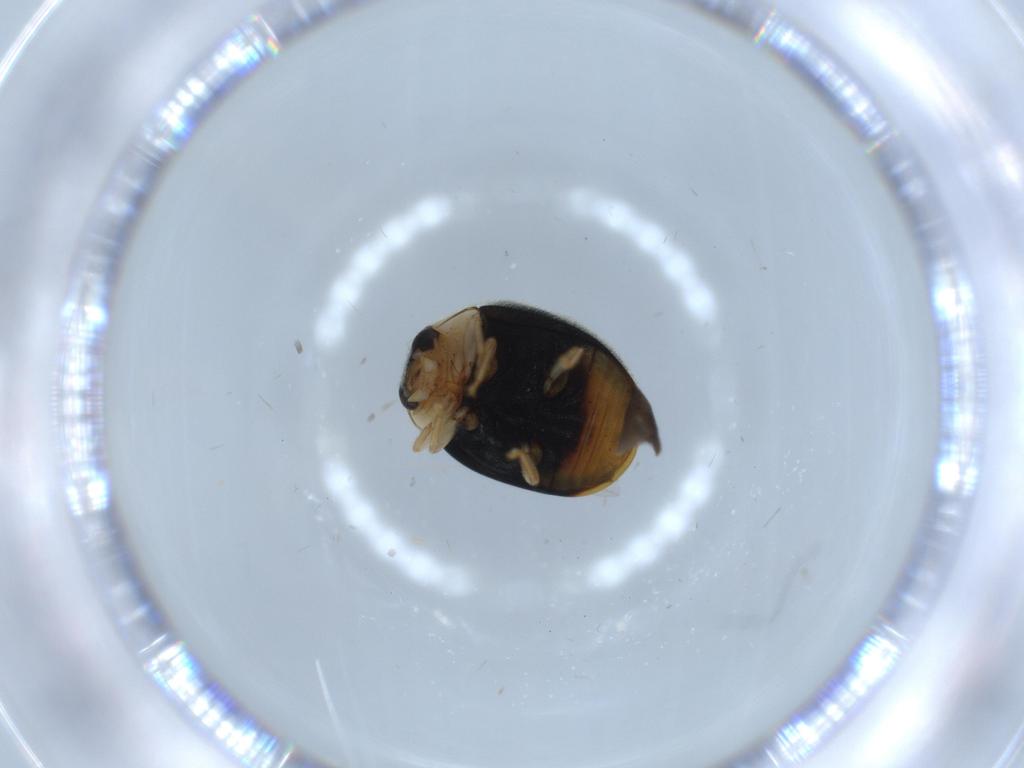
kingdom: Animalia
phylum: Arthropoda
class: Insecta
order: Coleoptera
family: Coccinellidae
